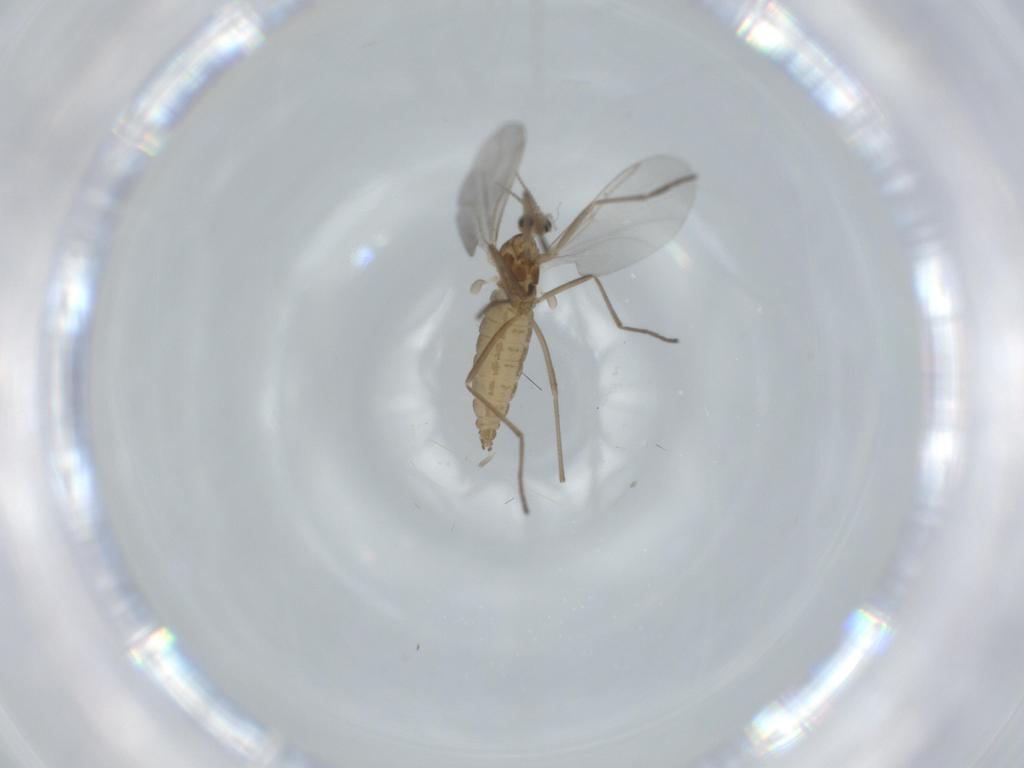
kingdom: Animalia
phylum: Arthropoda
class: Insecta
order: Diptera
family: Cecidomyiidae
